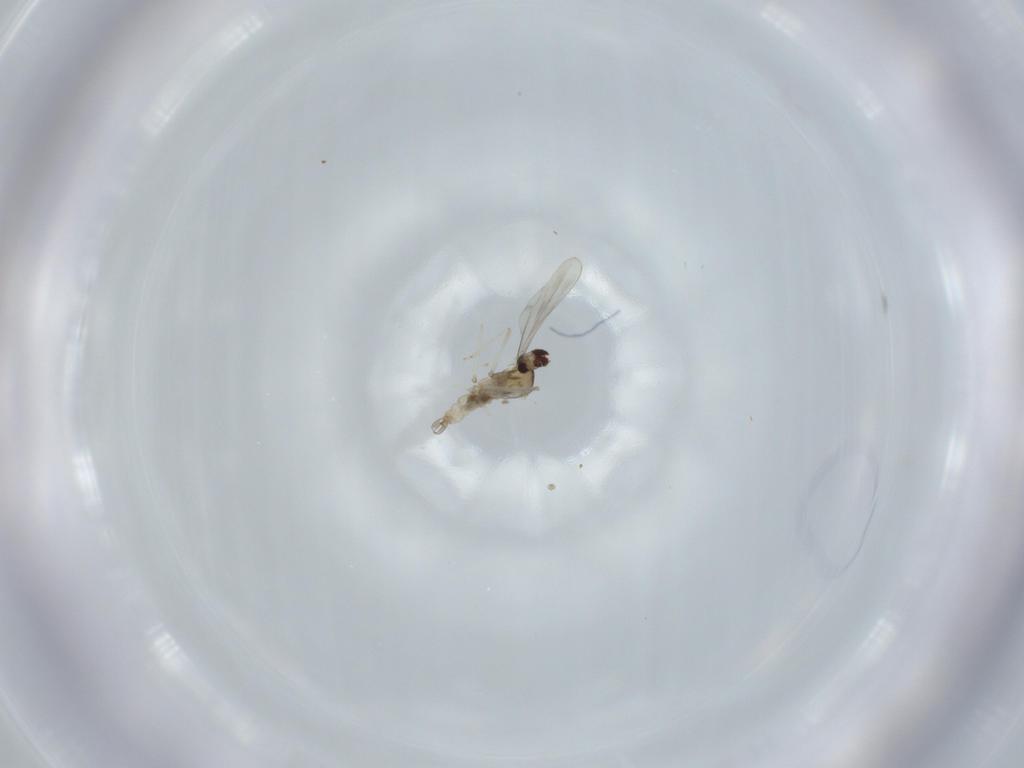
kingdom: Animalia
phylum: Arthropoda
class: Insecta
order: Diptera
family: Cecidomyiidae
